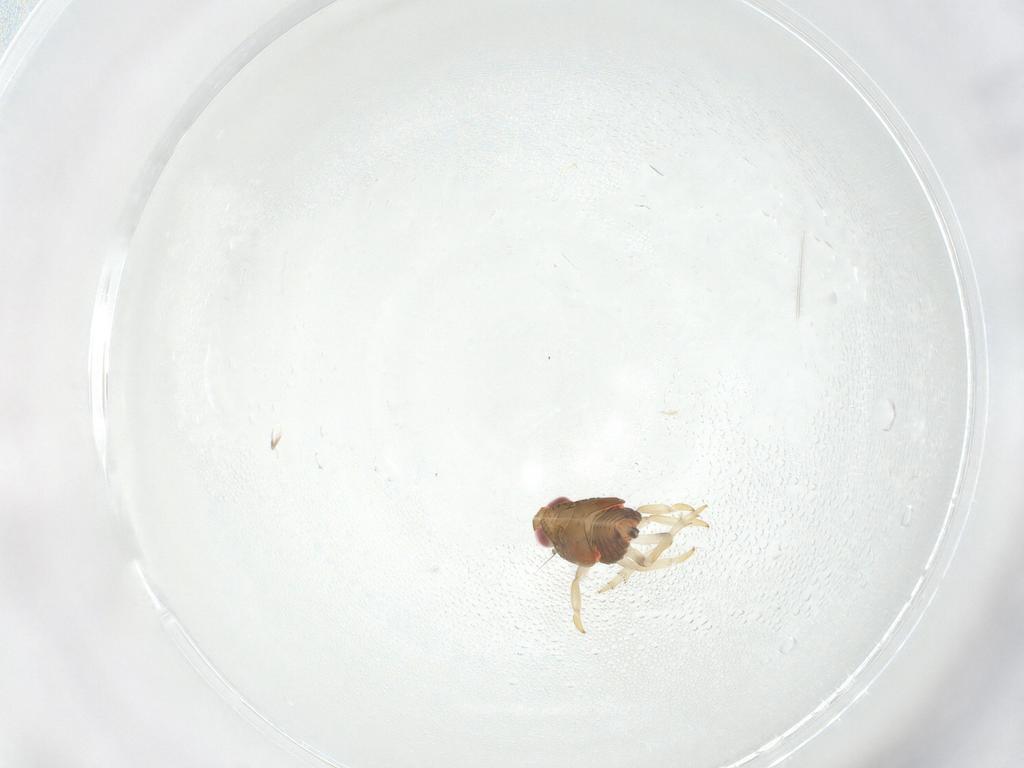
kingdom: Animalia
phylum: Arthropoda
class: Insecta
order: Hemiptera
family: Issidae
